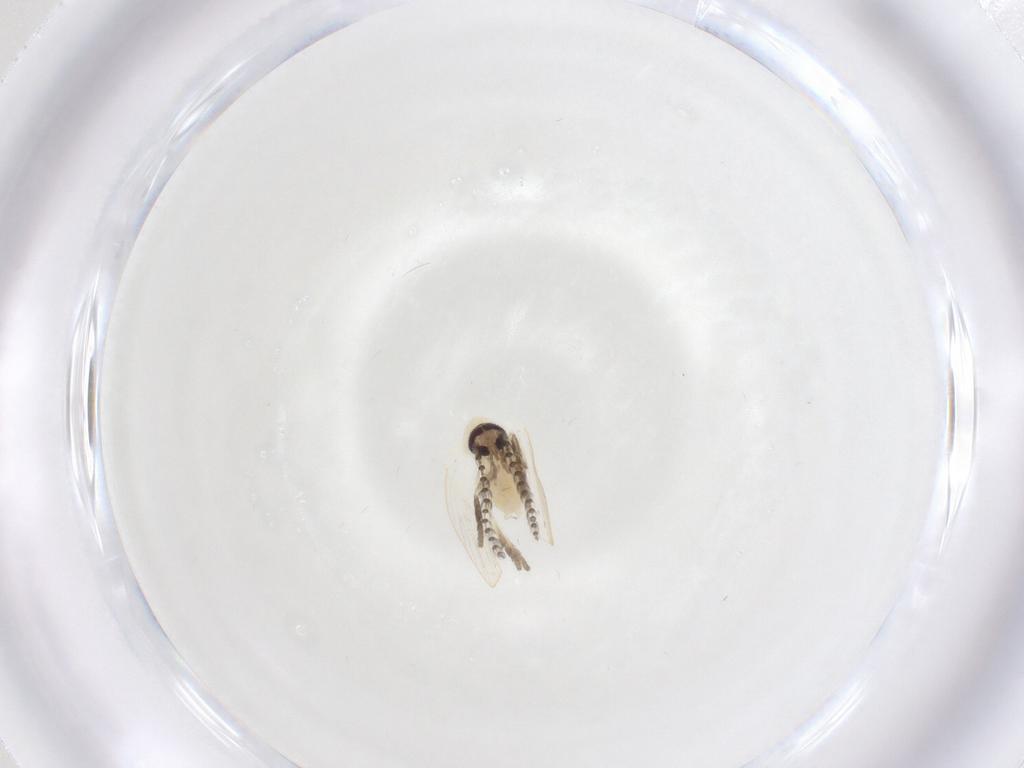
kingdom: Animalia
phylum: Arthropoda
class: Insecta
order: Diptera
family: Psychodidae
